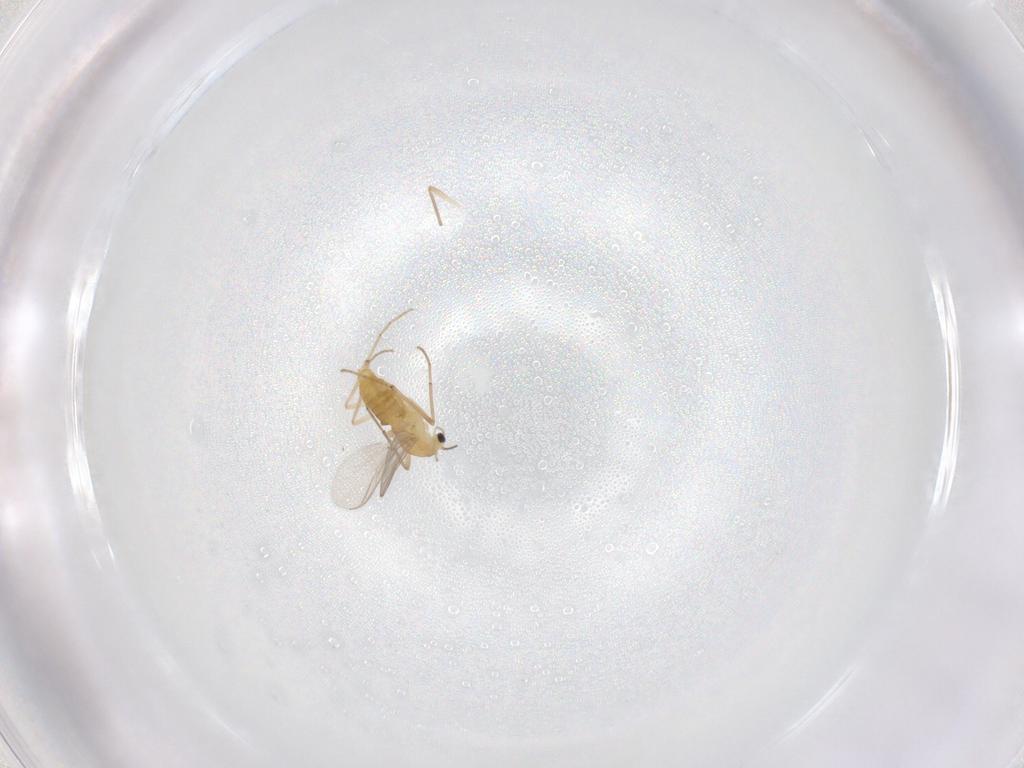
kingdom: Animalia
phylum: Arthropoda
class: Insecta
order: Diptera
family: Chironomidae
